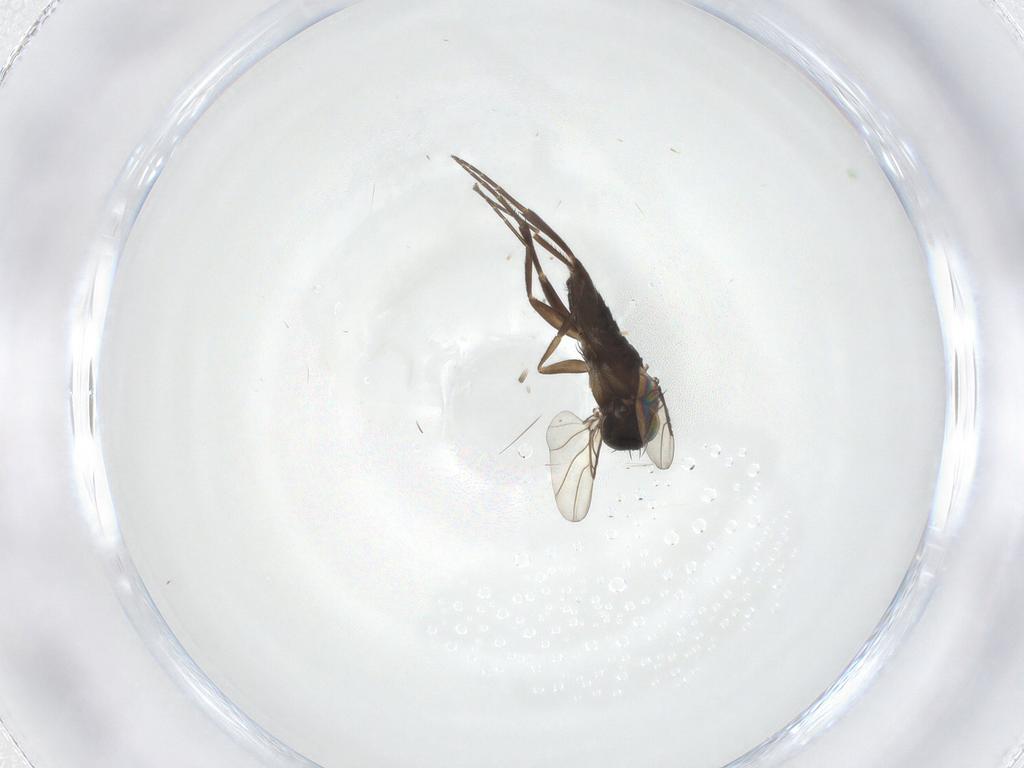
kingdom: Animalia
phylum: Arthropoda
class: Insecta
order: Diptera
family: Phoridae
